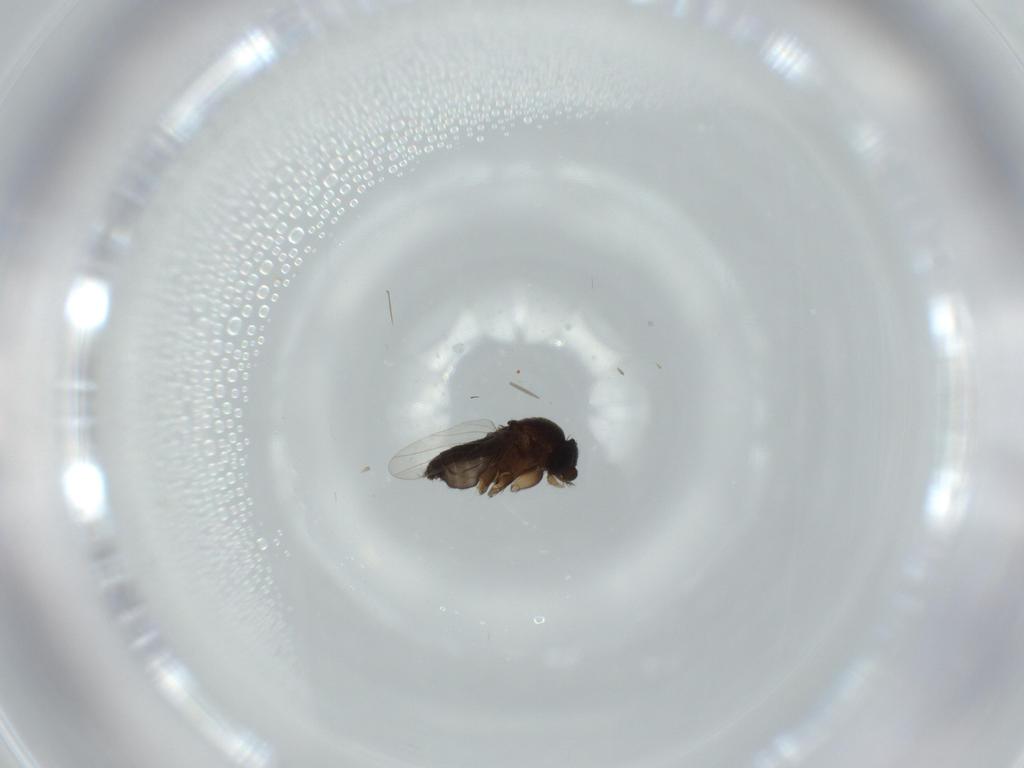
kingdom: Animalia
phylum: Arthropoda
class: Insecta
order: Diptera
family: Phoridae
